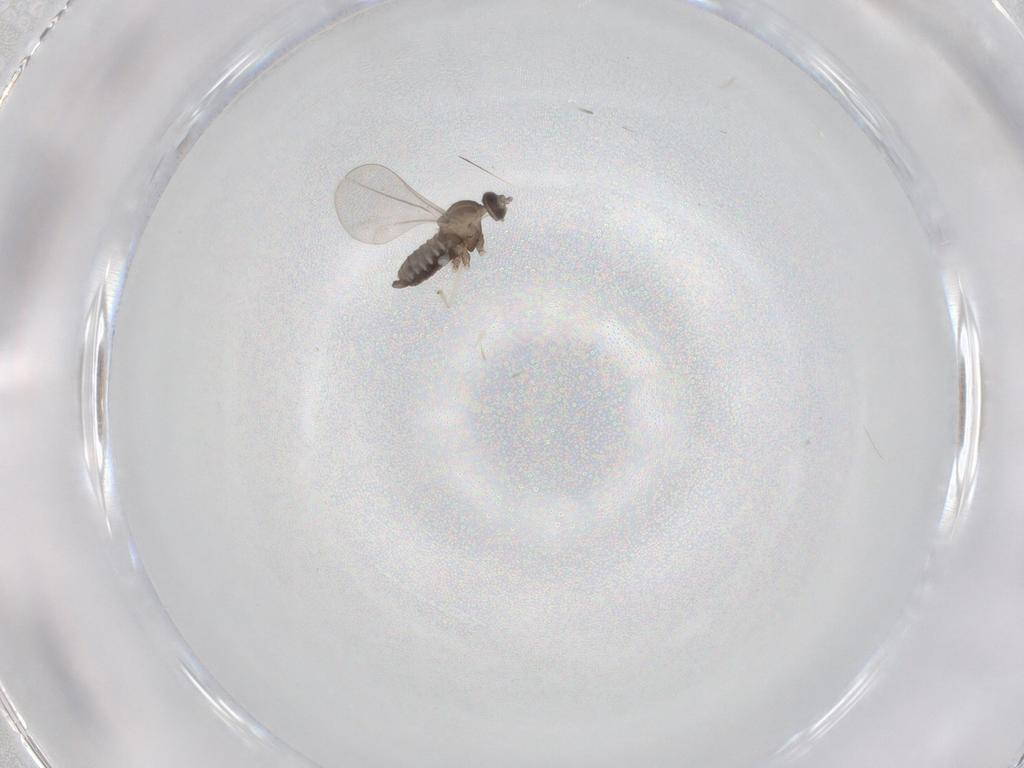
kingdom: Animalia
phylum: Arthropoda
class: Insecta
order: Diptera
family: Cecidomyiidae
